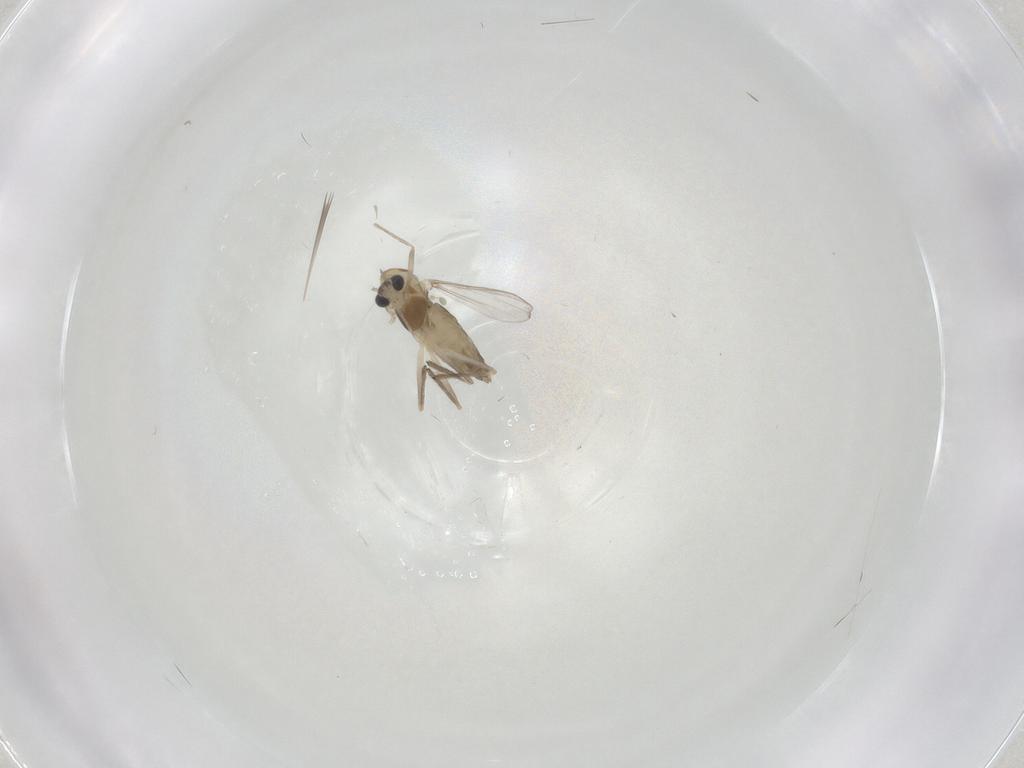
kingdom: Animalia
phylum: Arthropoda
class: Insecta
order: Diptera
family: Chironomidae
